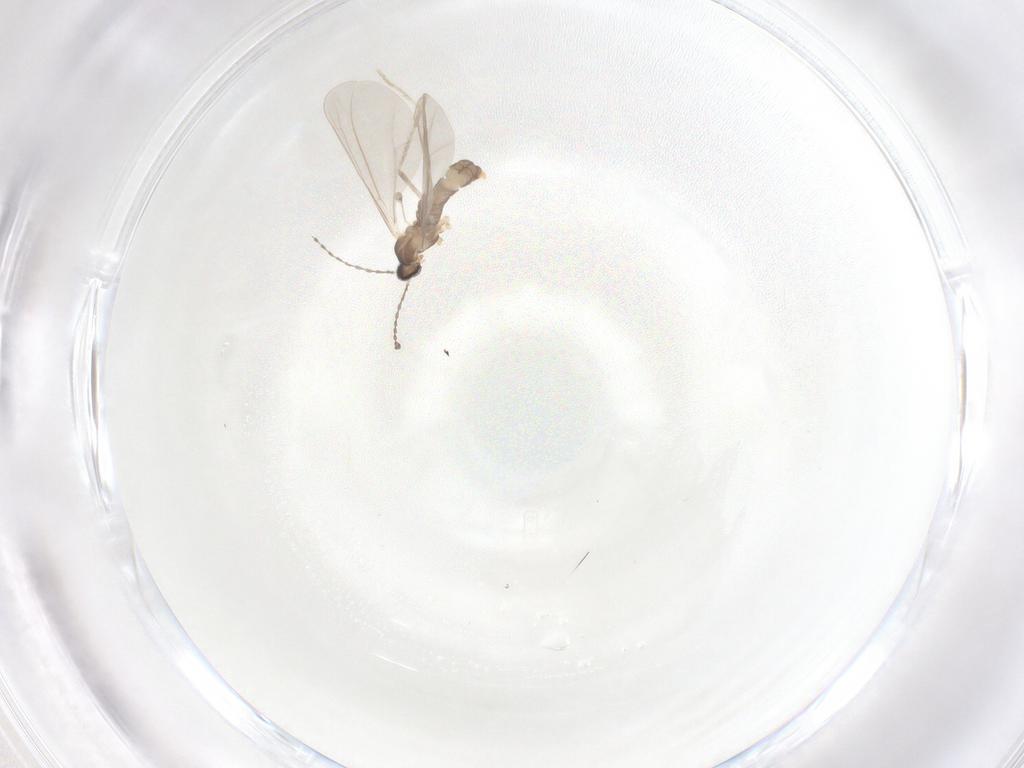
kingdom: Animalia
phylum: Arthropoda
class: Insecta
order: Diptera
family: Cecidomyiidae
